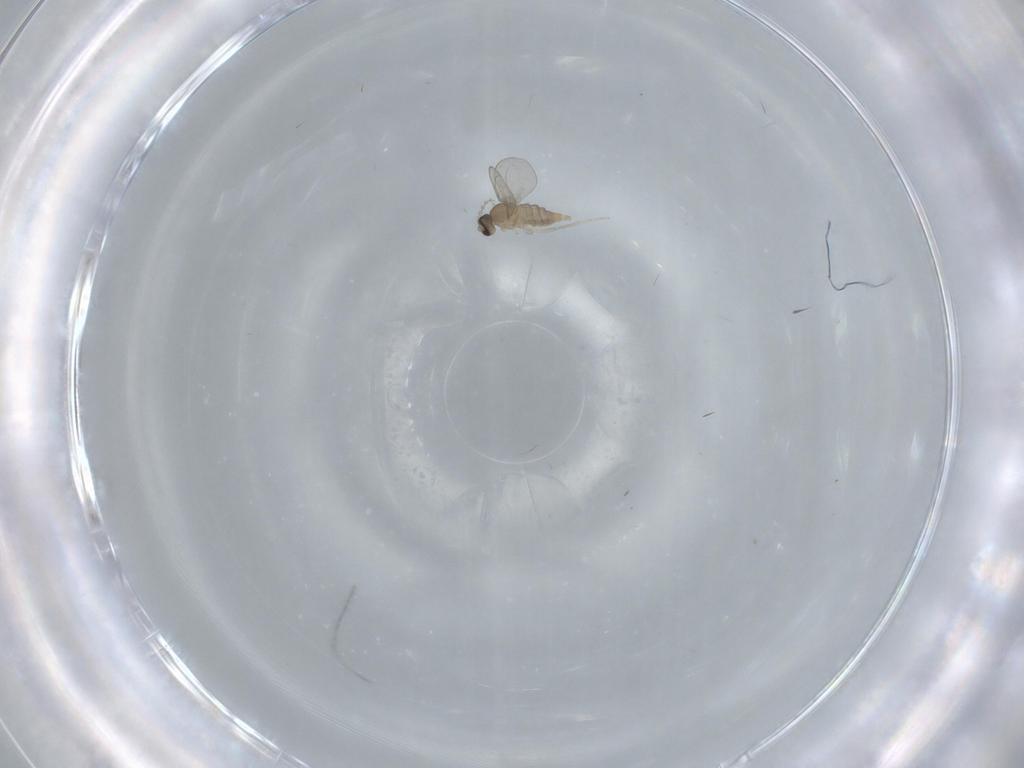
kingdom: Animalia
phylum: Arthropoda
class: Insecta
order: Diptera
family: Cecidomyiidae
